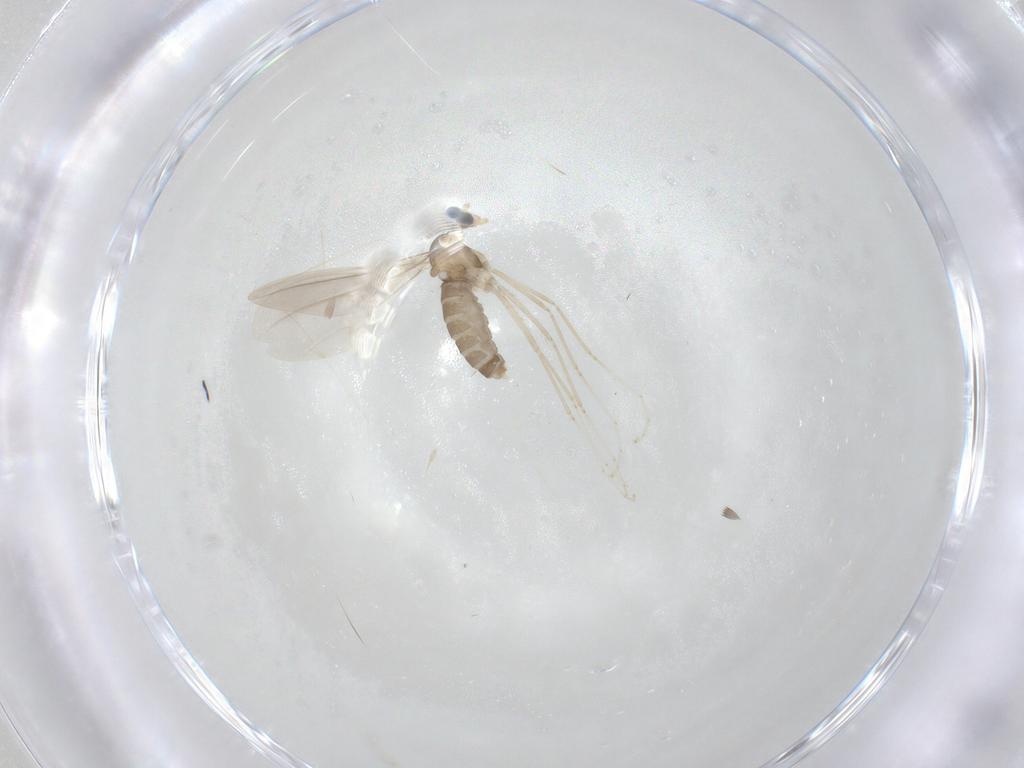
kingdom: Animalia
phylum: Arthropoda
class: Insecta
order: Diptera
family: Cecidomyiidae
